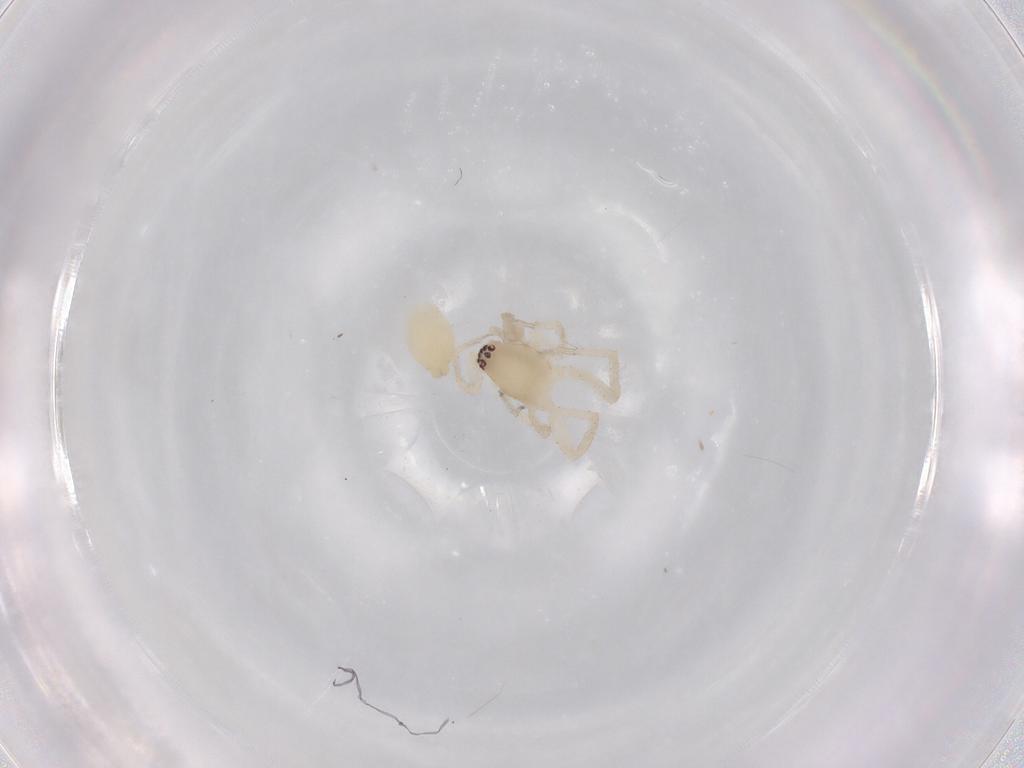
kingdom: Animalia
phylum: Arthropoda
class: Arachnida
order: Araneae
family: Anyphaenidae
